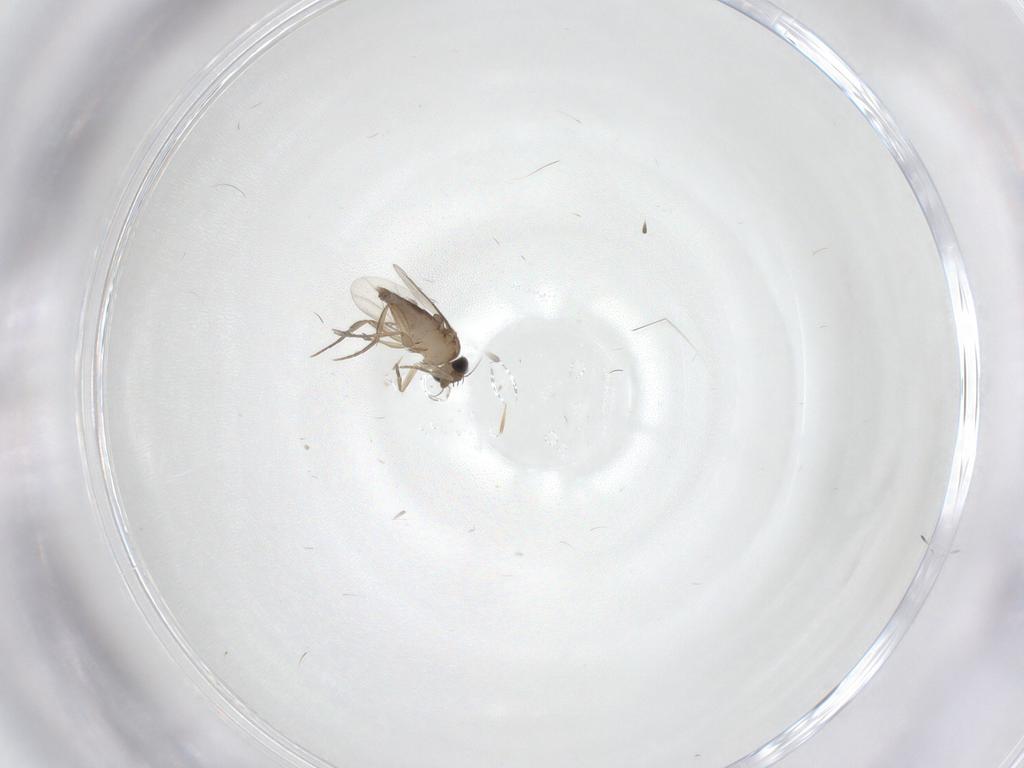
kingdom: Animalia
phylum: Arthropoda
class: Insecta
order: Diptera
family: Phoridae
